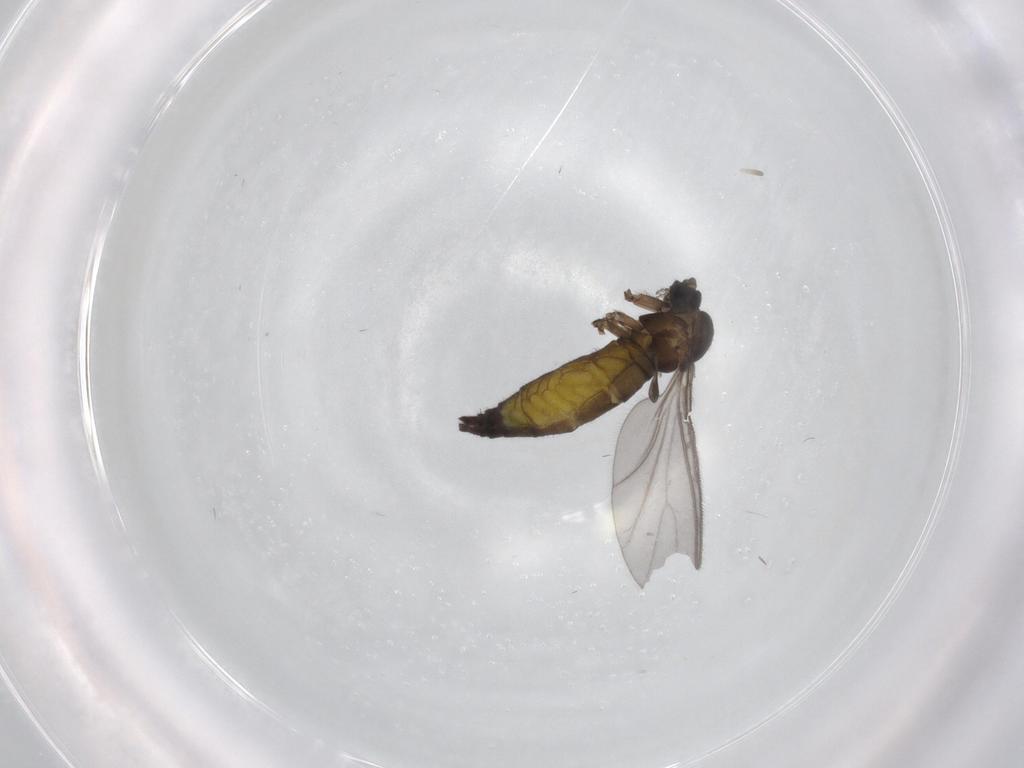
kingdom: Animalia
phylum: Arthropoda
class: Insecta
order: Diptera
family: Sciaridae
